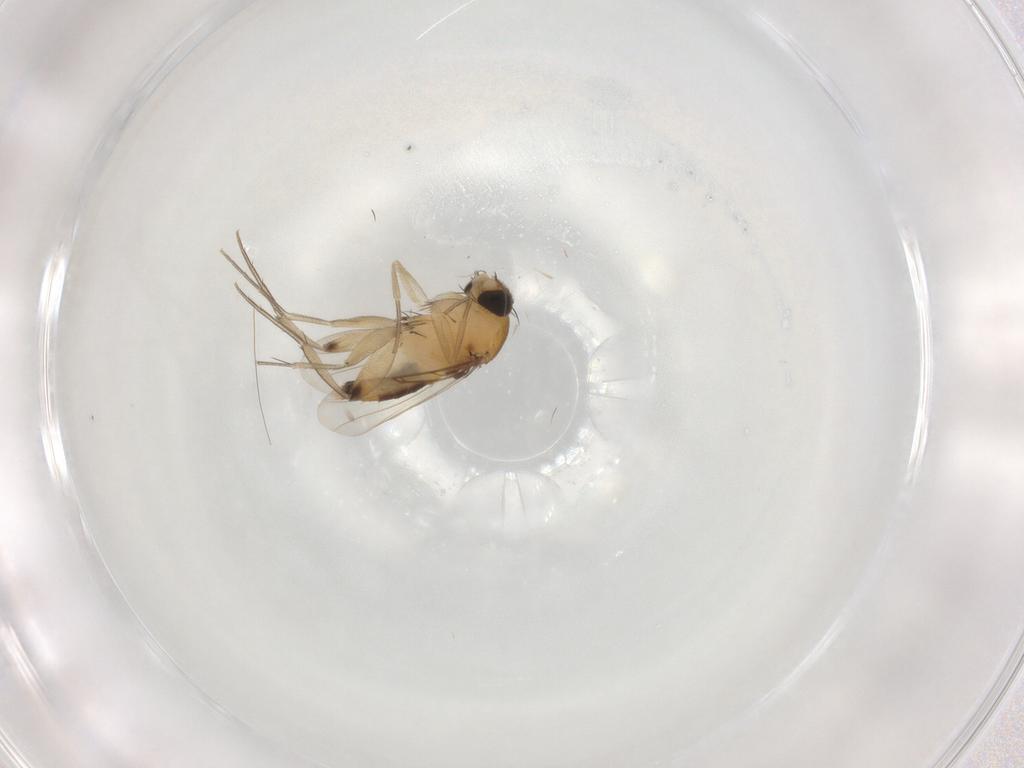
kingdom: Animalia
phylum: Arthropoda
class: Insecta
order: Diptera
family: Phoridae
